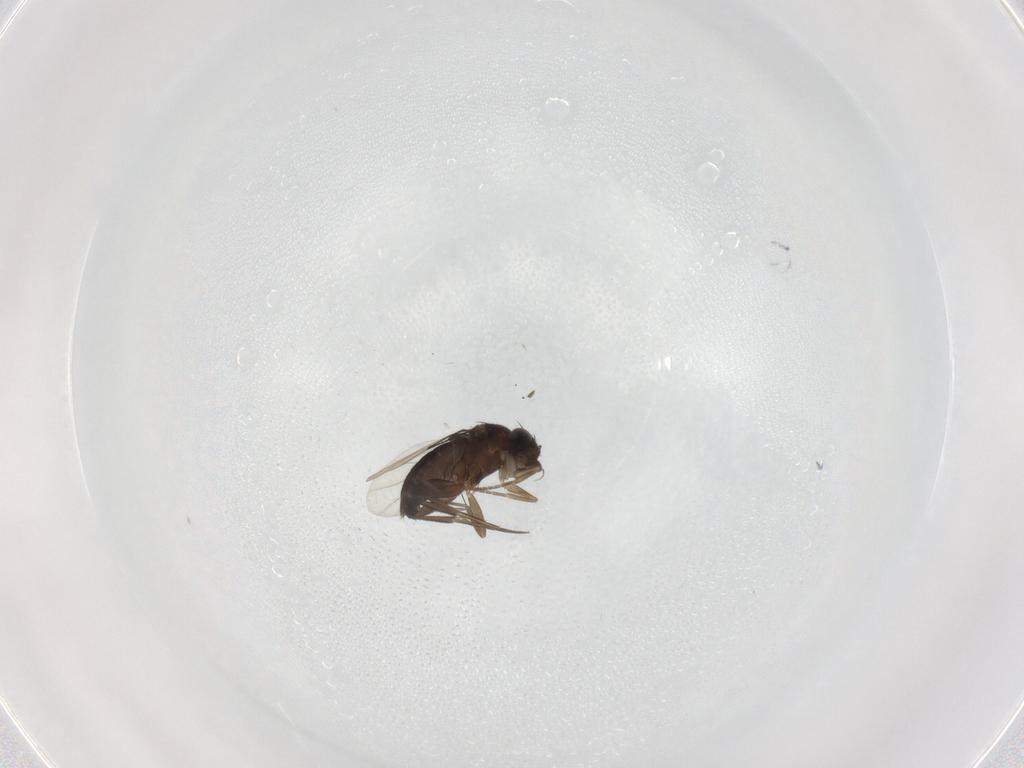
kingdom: Animalia
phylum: Arthropoda
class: Insecta
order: Diptera
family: Phoridae
